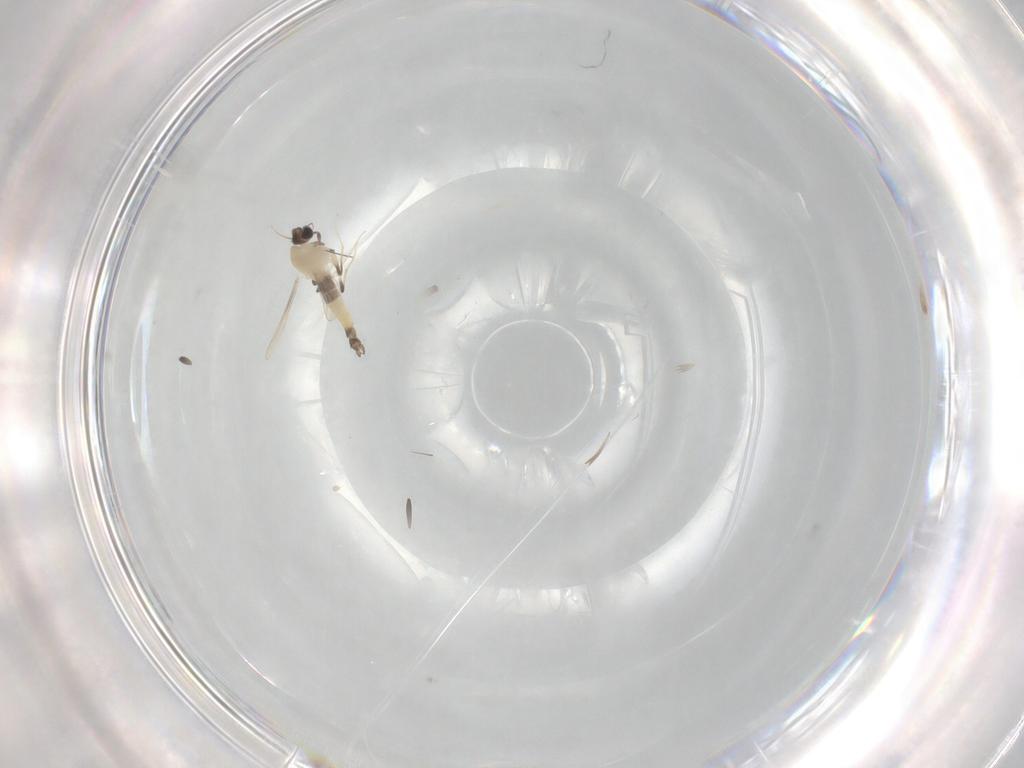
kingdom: Animalia
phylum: Arthropoda
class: Insecta
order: Diptera
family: Chironomidae
